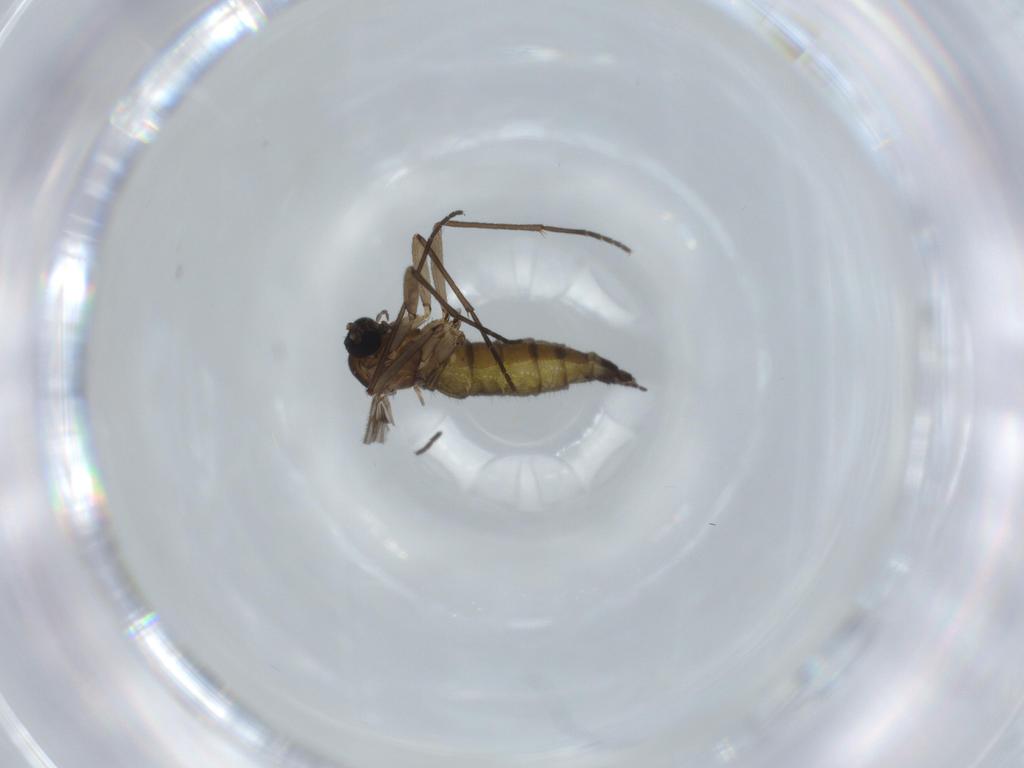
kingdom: Animalia
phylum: Arthropoda
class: Insecta
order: Diptera
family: Sciaridae
